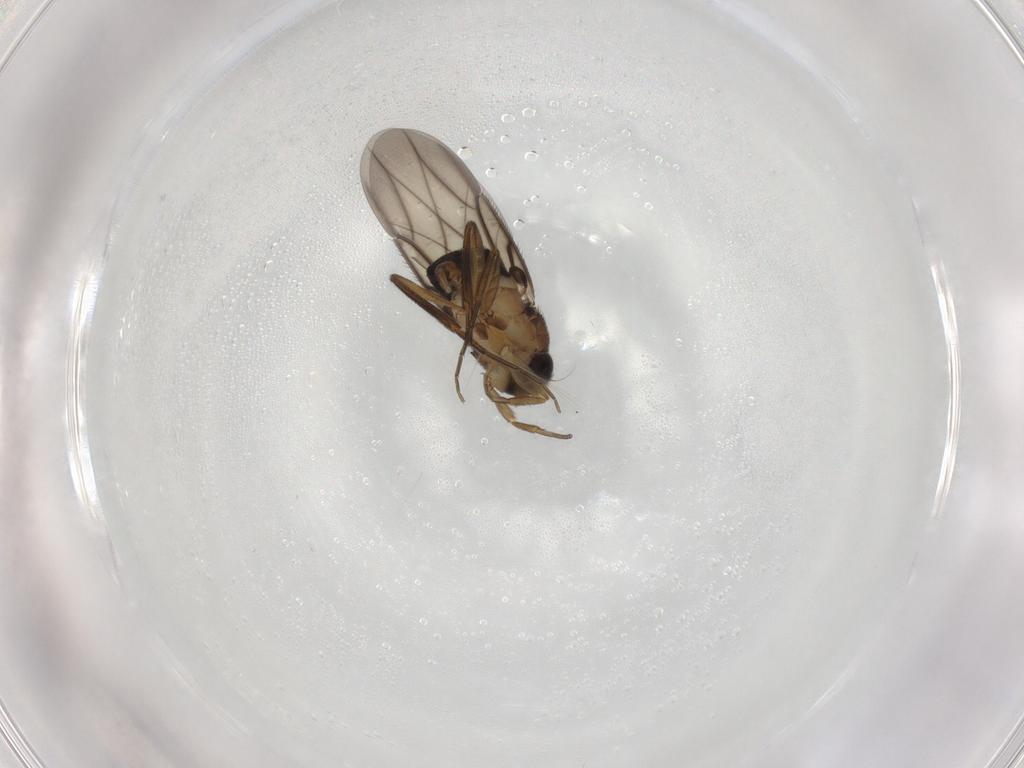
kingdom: Animalia
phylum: Arthropoda
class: Insecta
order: Diptera
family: Phoridae
